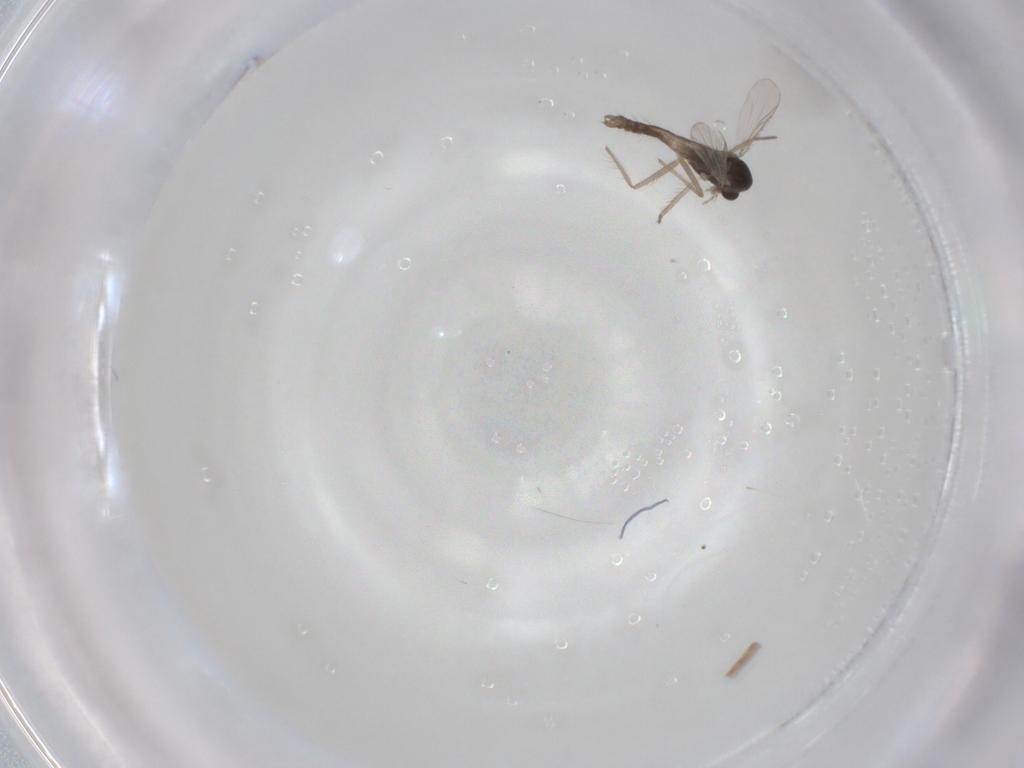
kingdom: Animalia
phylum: Arthropoda
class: Insecta
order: Diptera
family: Chironomidae
